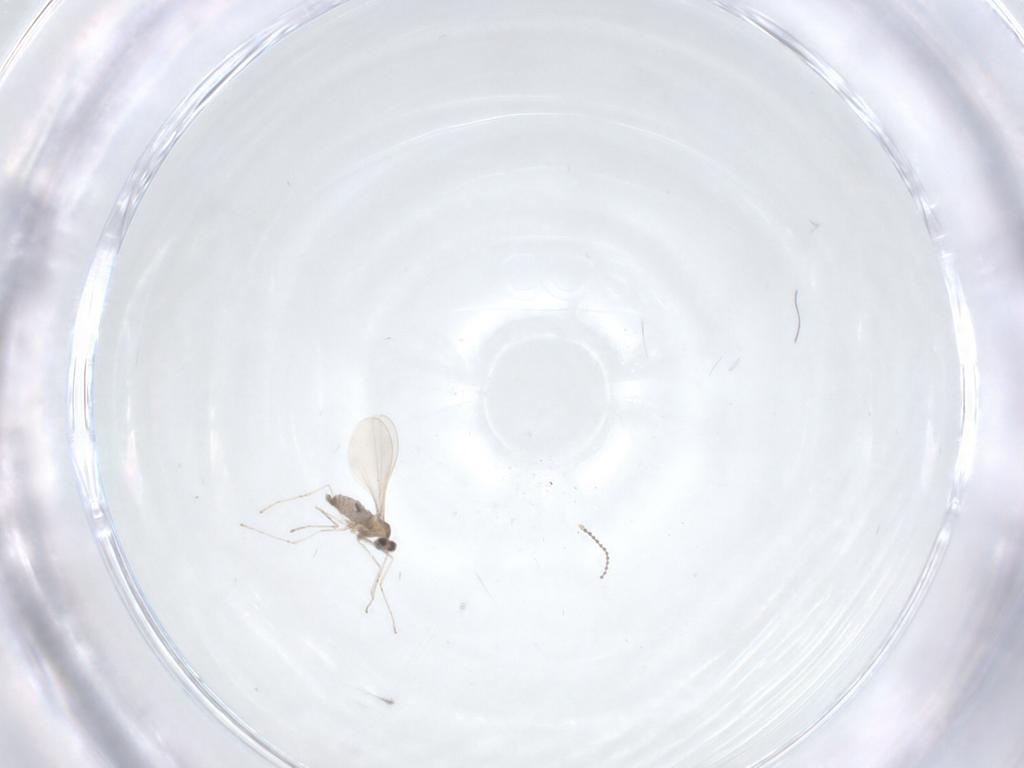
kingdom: Animalia
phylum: Arthropoda
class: Insecta
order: Diptera
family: Cecidomyiidae
